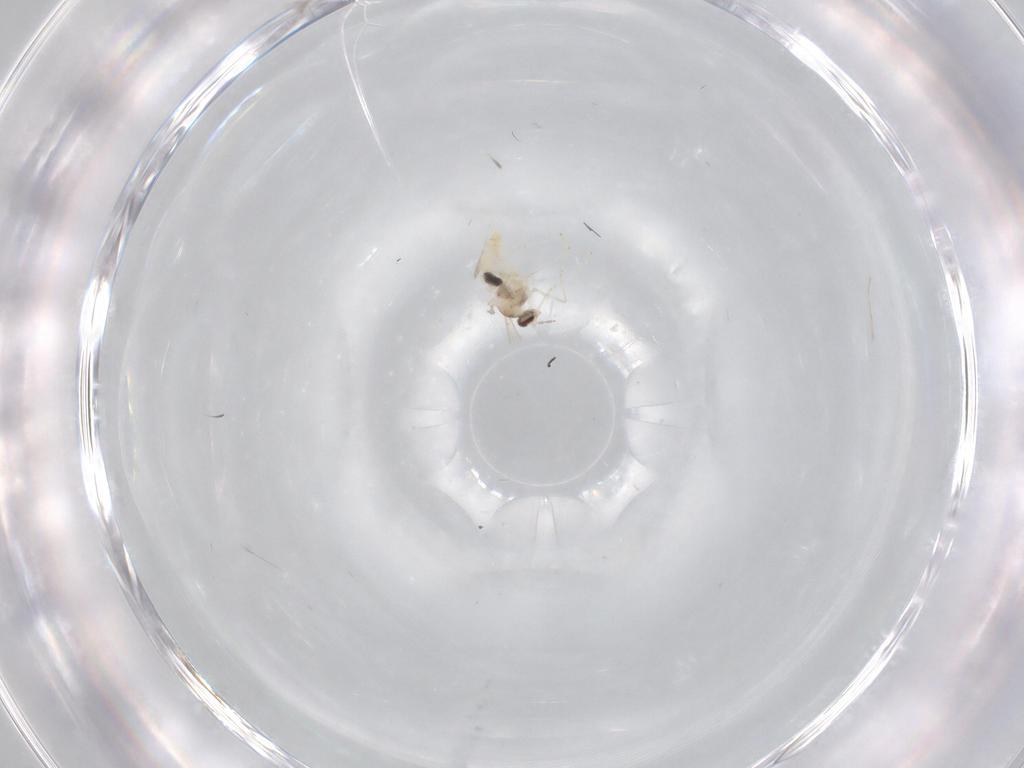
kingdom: Animalia
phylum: Arthropoda
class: Insecta
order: Diptera
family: Cecidomyiidae
